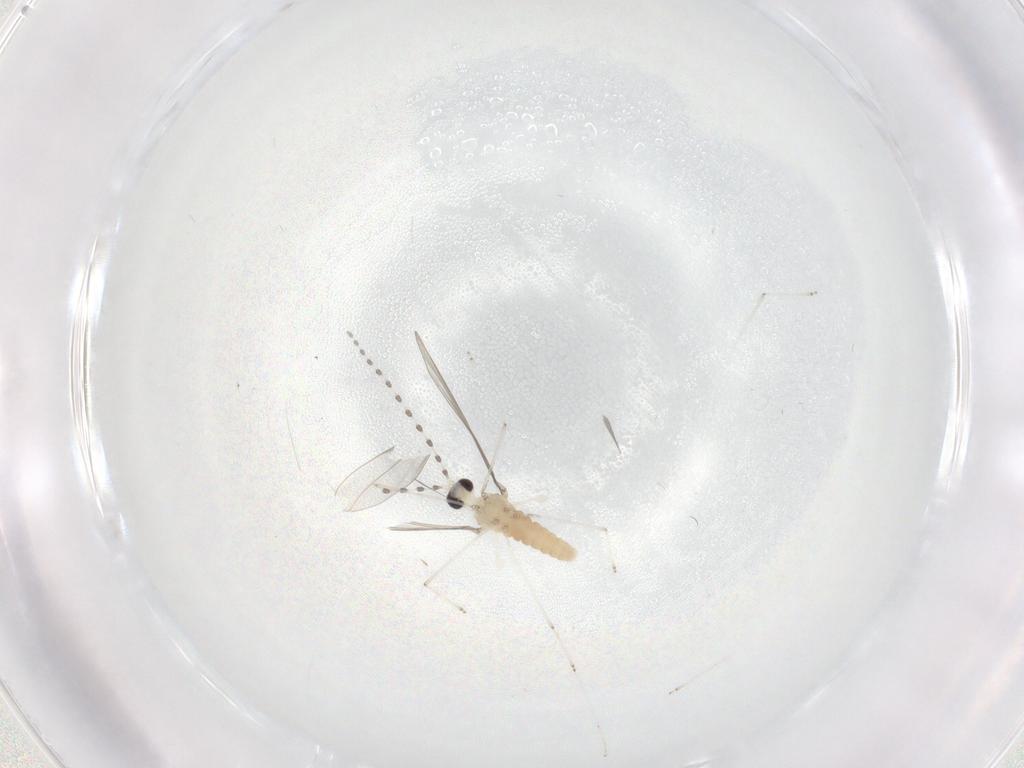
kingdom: Animalia
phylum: Arthropoda
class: Insecta
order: Diptera
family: Cecidomyiidae
